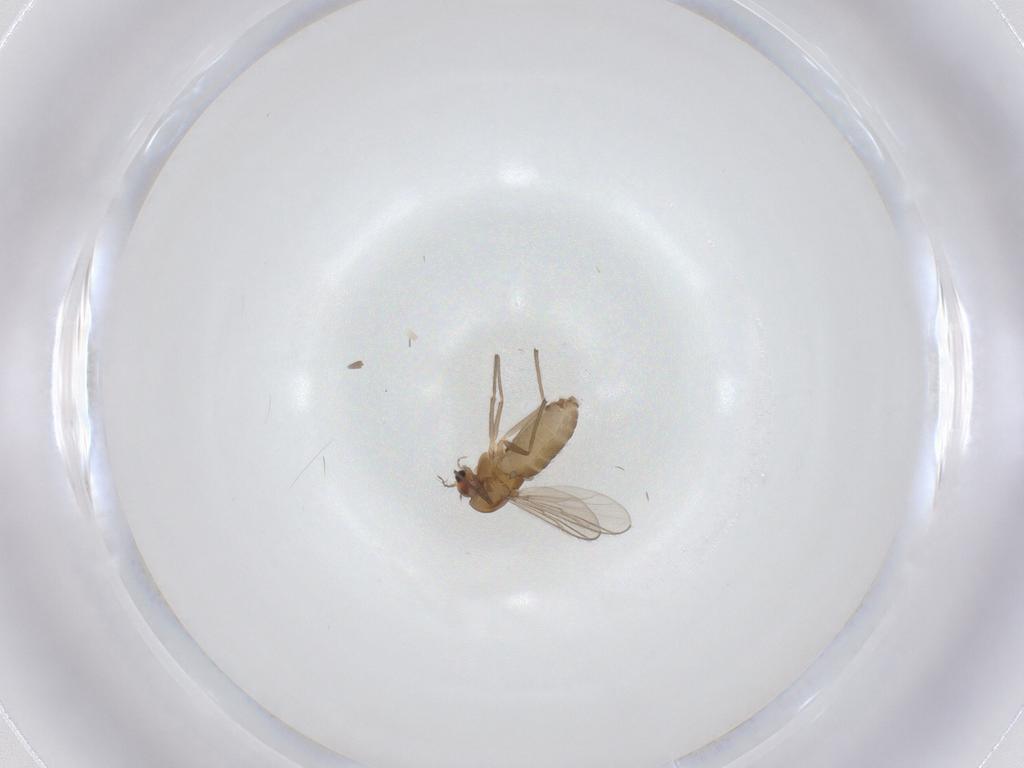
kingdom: Animalia
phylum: Arthropoda
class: Insecta
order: Diptera
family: Chironomidae
